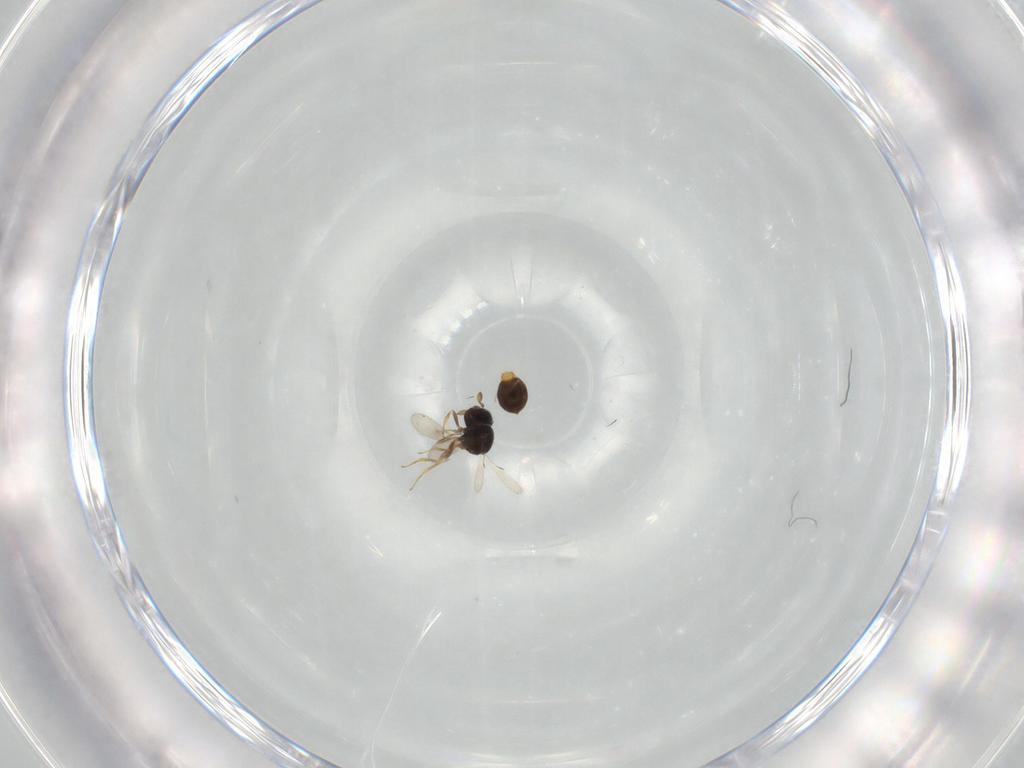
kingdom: Animalia
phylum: Arthropoda
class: Insecta
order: Hymenoptera
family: Scelionidae
